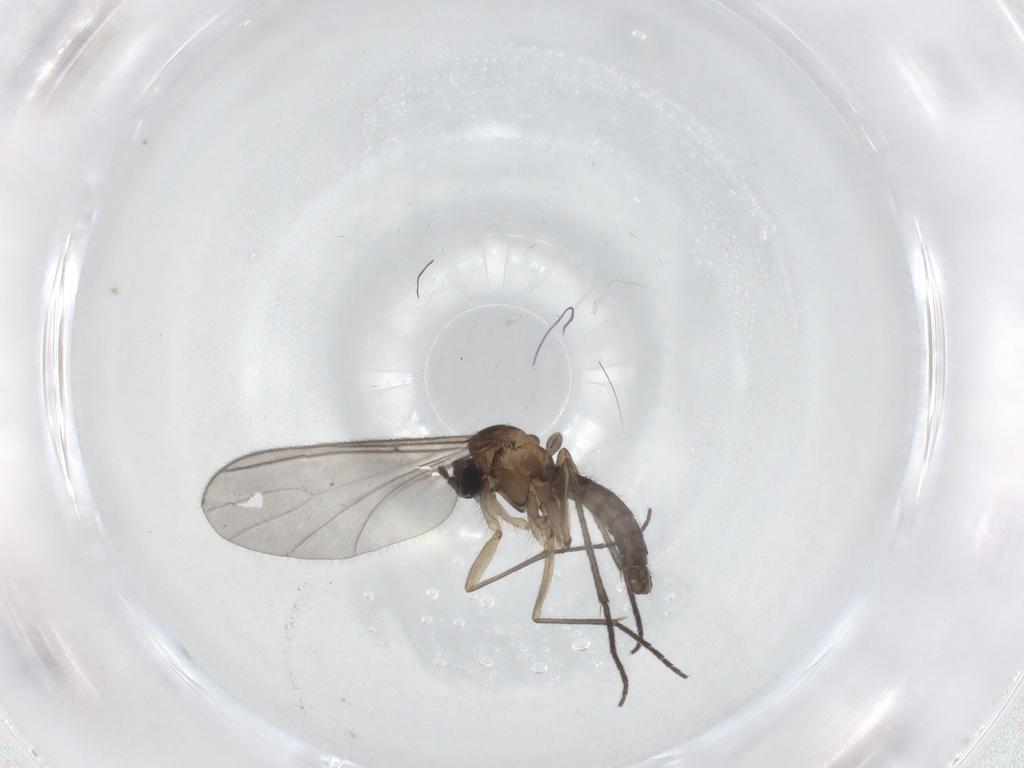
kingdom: Animalia
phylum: Arthropoda
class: Insecta
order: Diptera
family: Sciaridae
